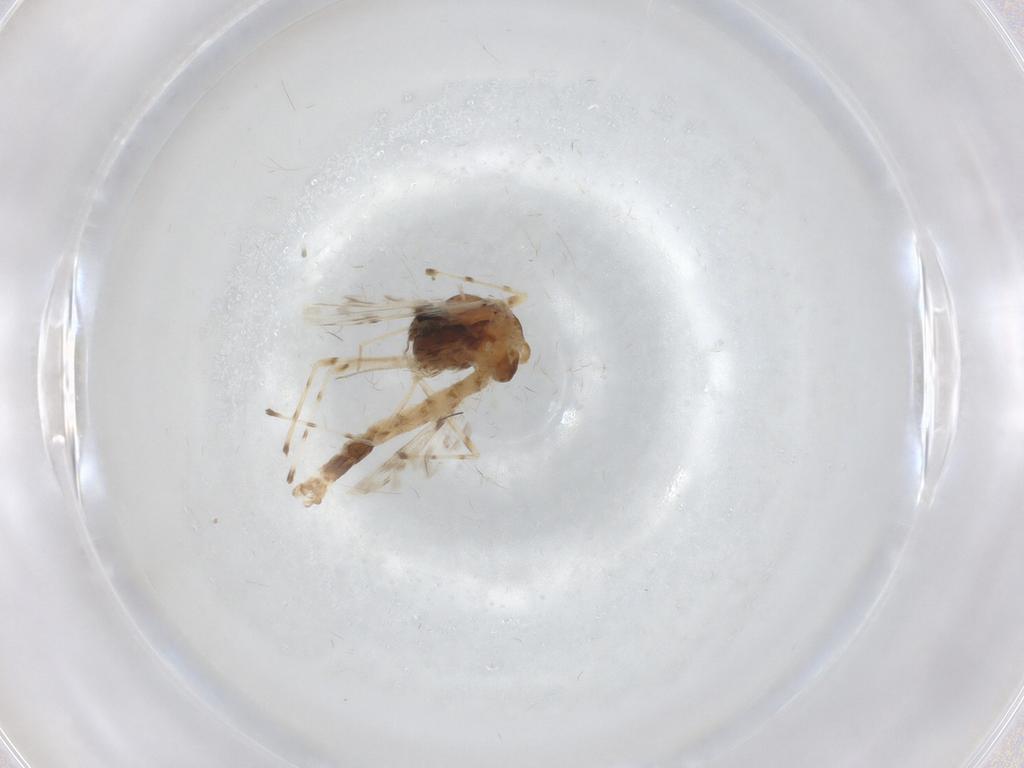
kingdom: Animalia
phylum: Arthropoda
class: Insecta
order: Diptera
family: Chironomidae
